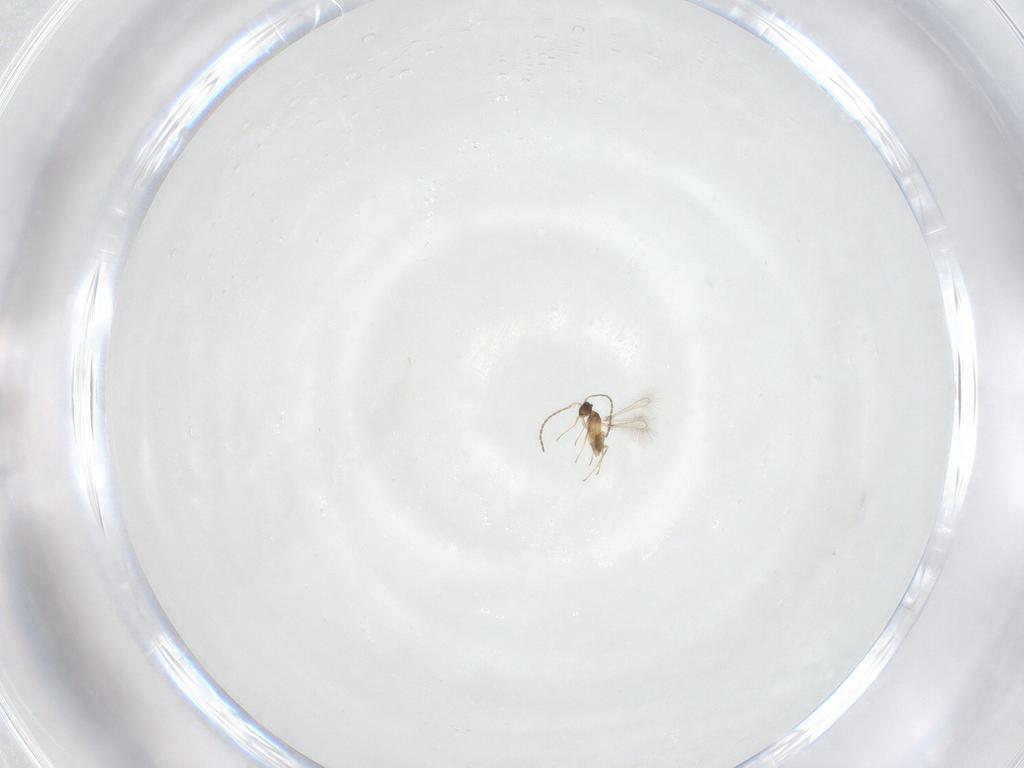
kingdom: Animalia
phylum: Arthropoda
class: Insecta
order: Hymenoptera
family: Mymaridae
